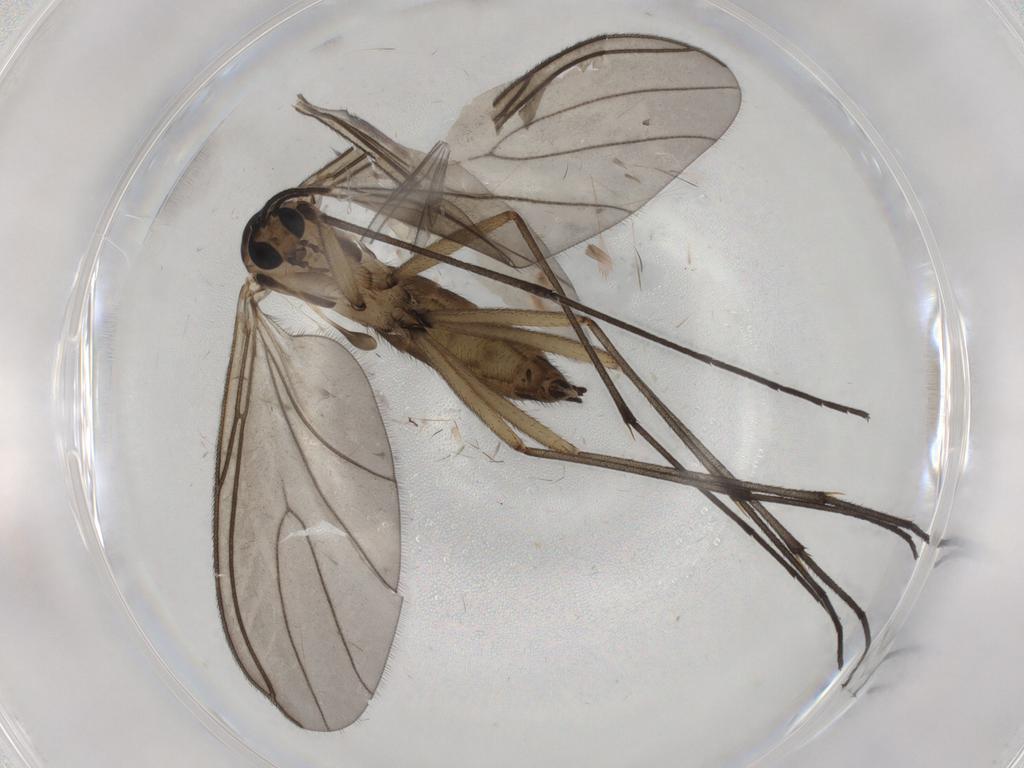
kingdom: Animalia
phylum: Arthropoda
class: Insecta
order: Diptera
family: Sciaridae
